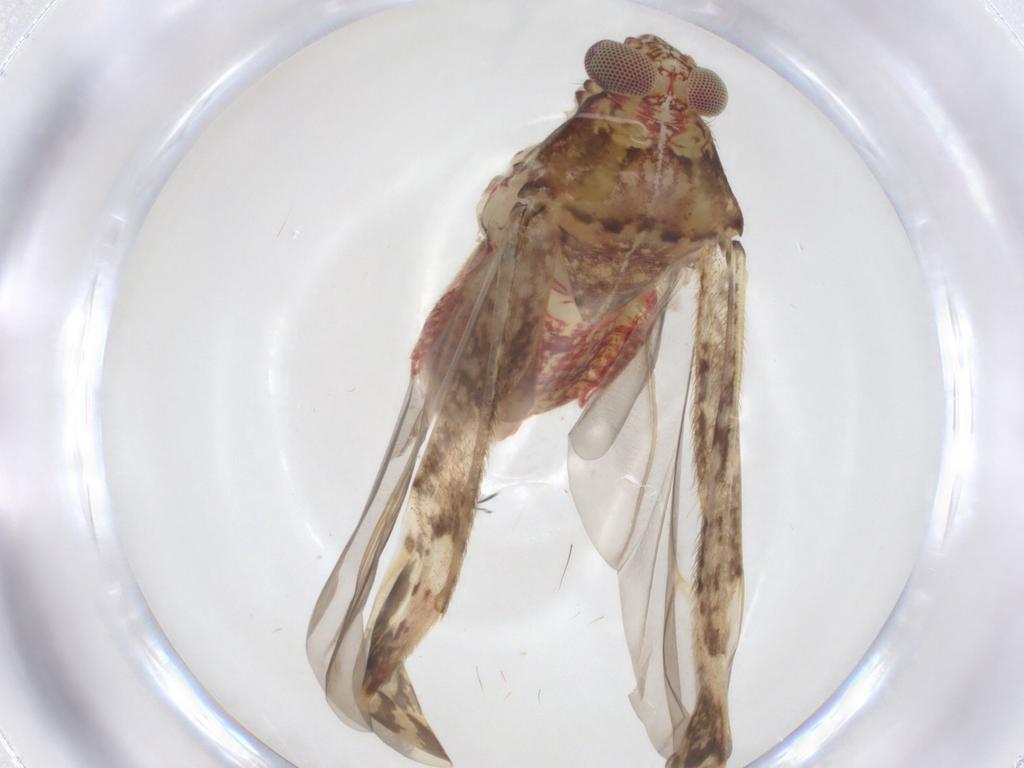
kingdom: Animalia
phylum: Arthropoda
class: Insecta
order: Hemiptera
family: Miridae
